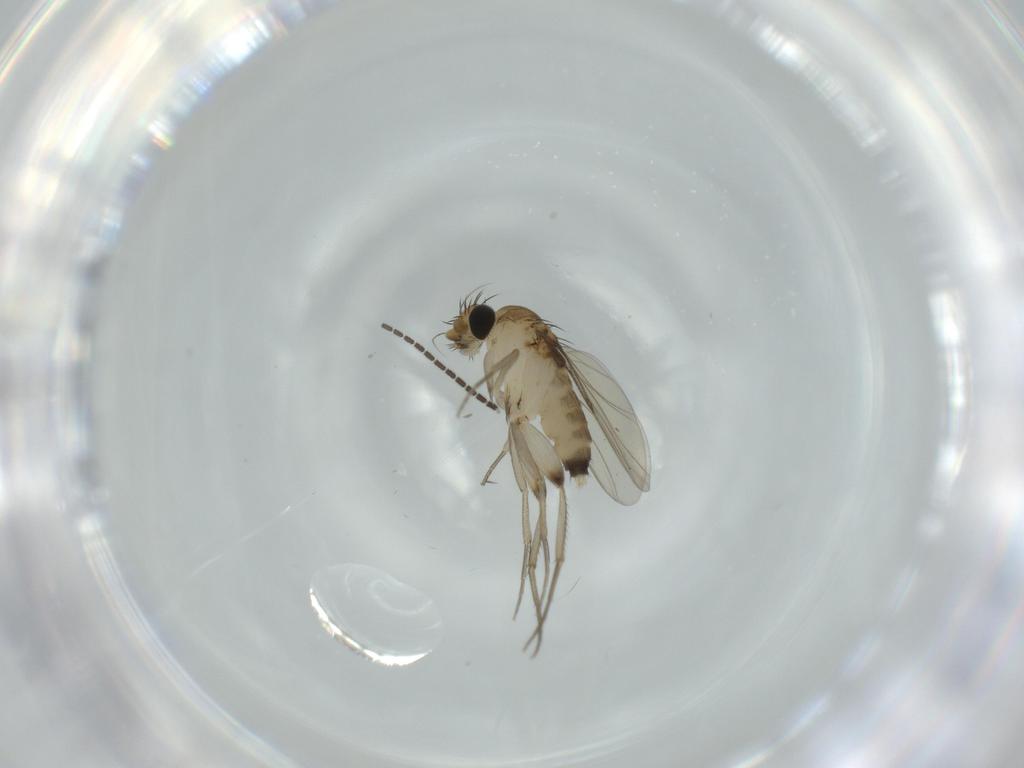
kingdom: Animalia
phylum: Arthropoda
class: Insecta
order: Diptera
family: Phoridae
